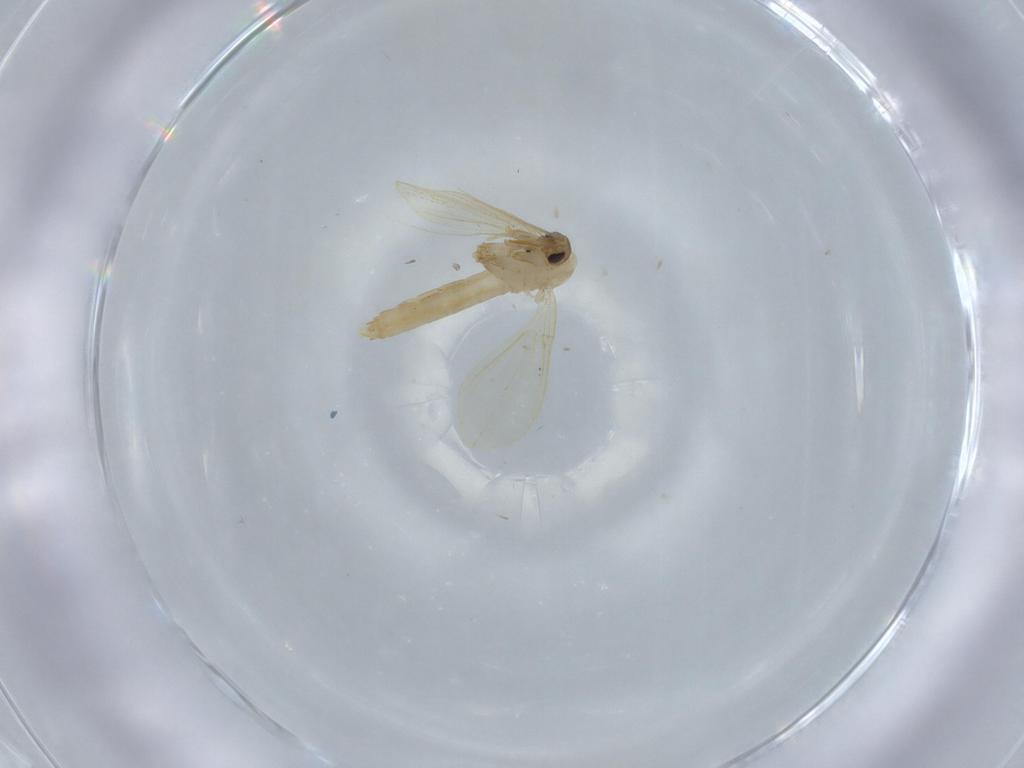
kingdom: Animalia
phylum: Arthropoda
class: Insecta
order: Diptera
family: Psychodidae
